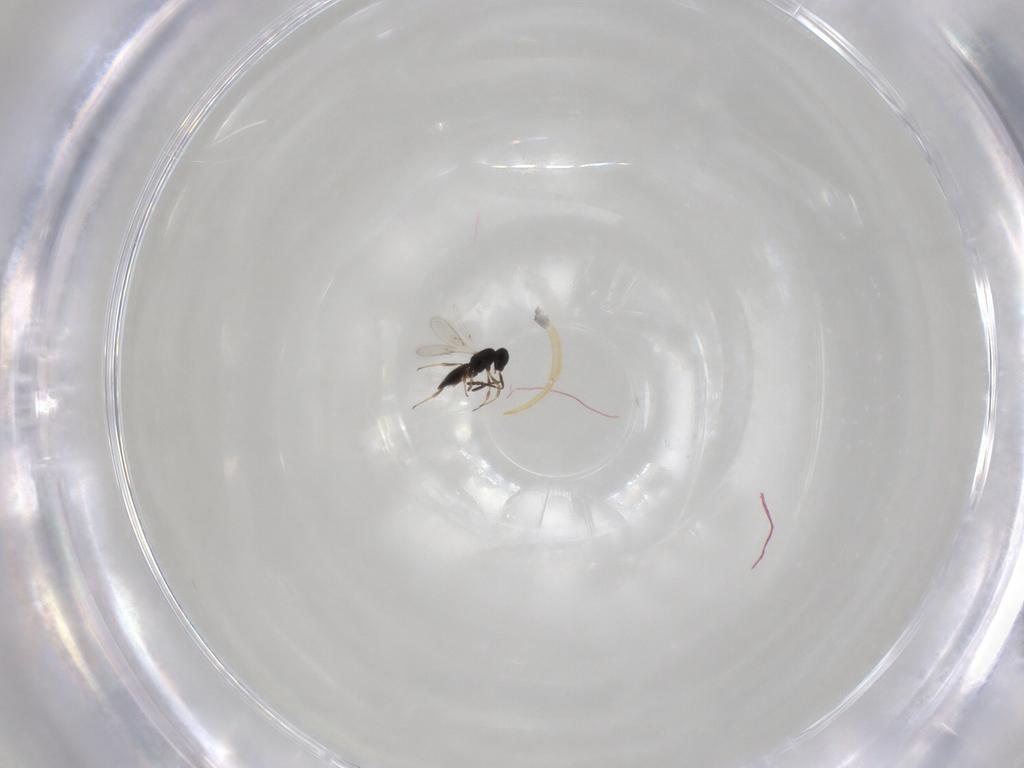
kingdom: Animalia
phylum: Arthropoda
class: Insecta
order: Hymenoptera
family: Scelionidae
